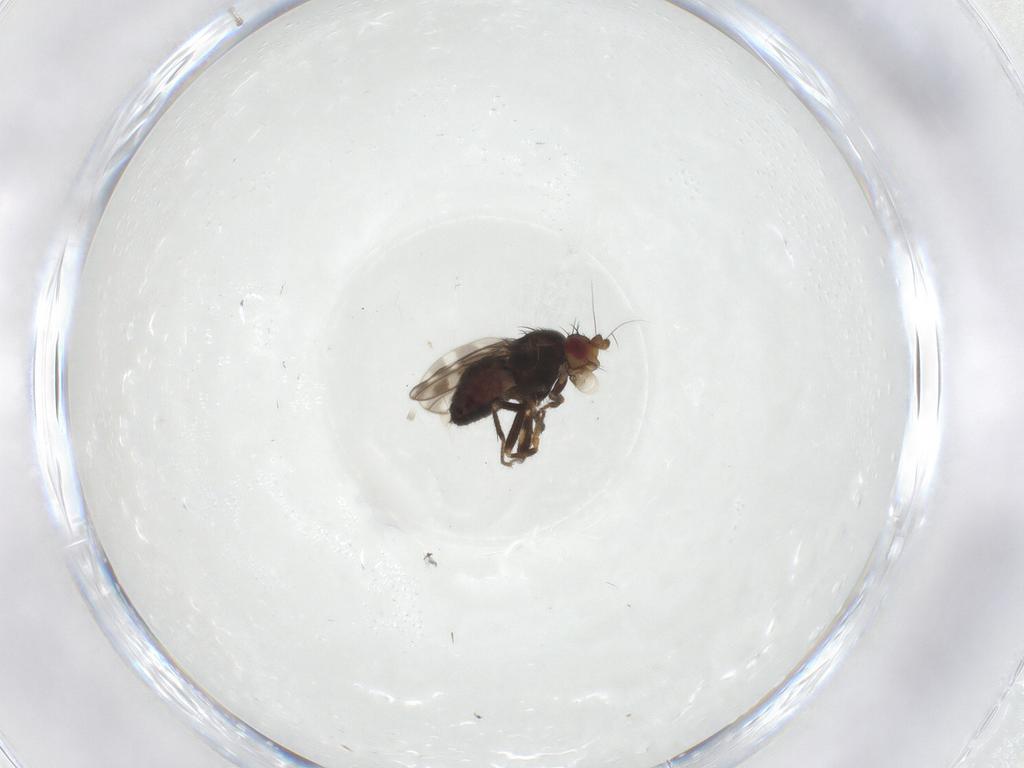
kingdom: Animalia
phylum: Arthropoda
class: Insecta
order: Diptera
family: Sphaeroceridae
